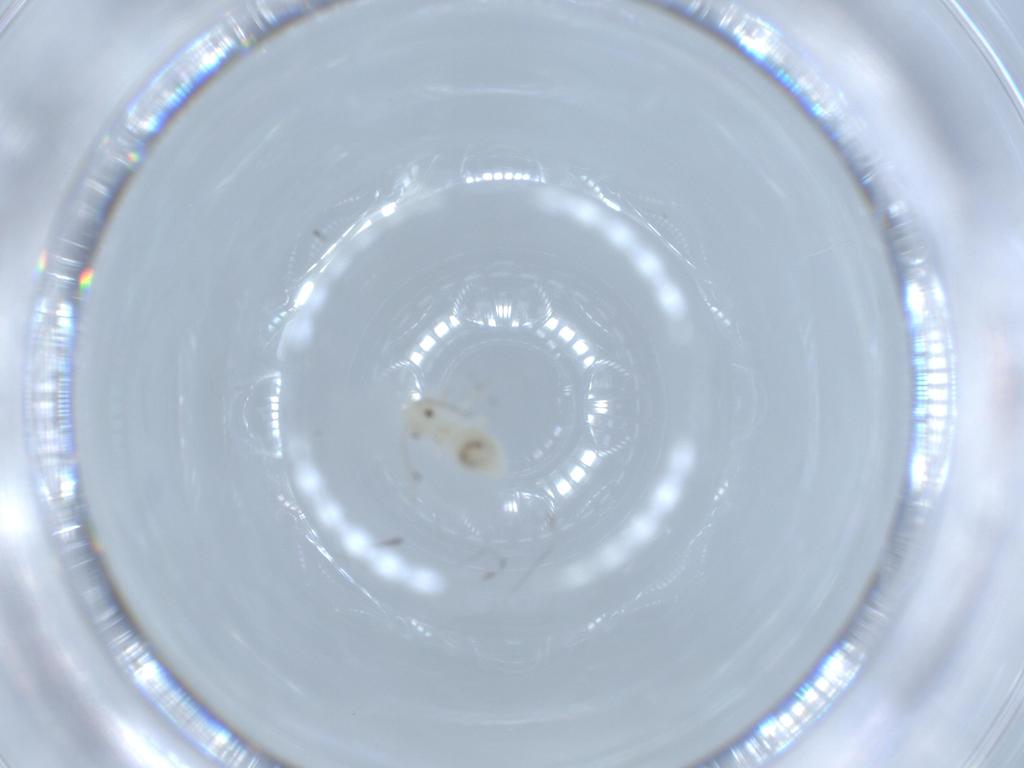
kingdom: Animalia
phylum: Arthropoda
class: Insecta
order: Psocodea
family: Caeciliusidae
